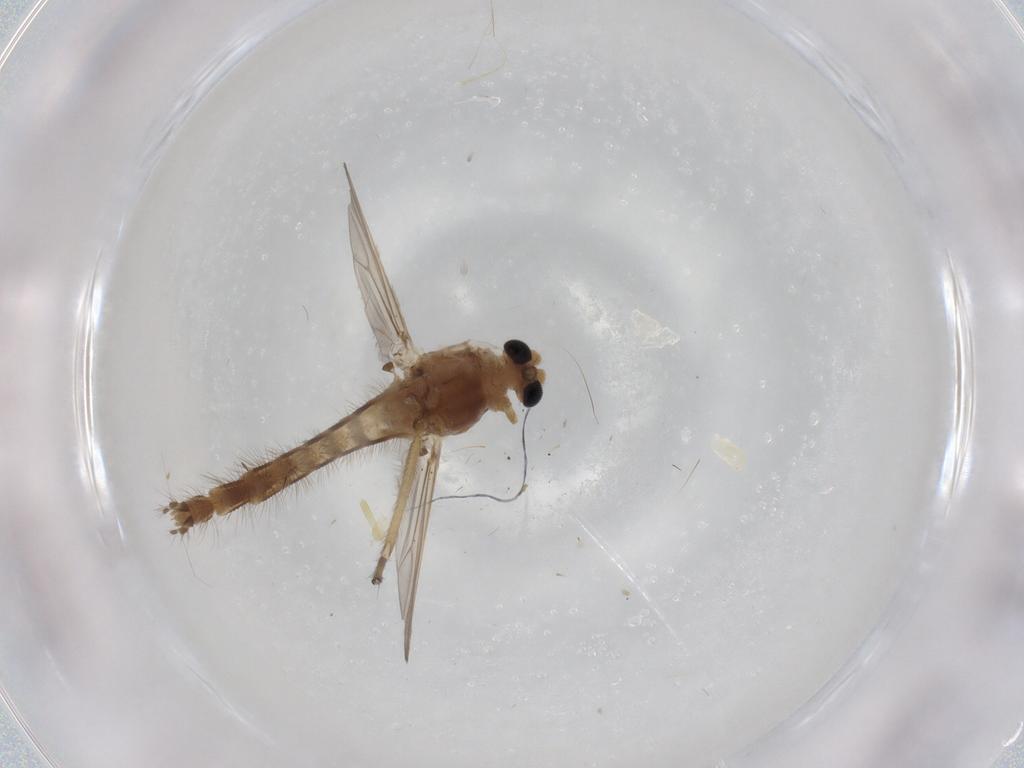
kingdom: Animalia
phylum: Arthropoda
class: Insecta
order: Diptera
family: Chironomidae
